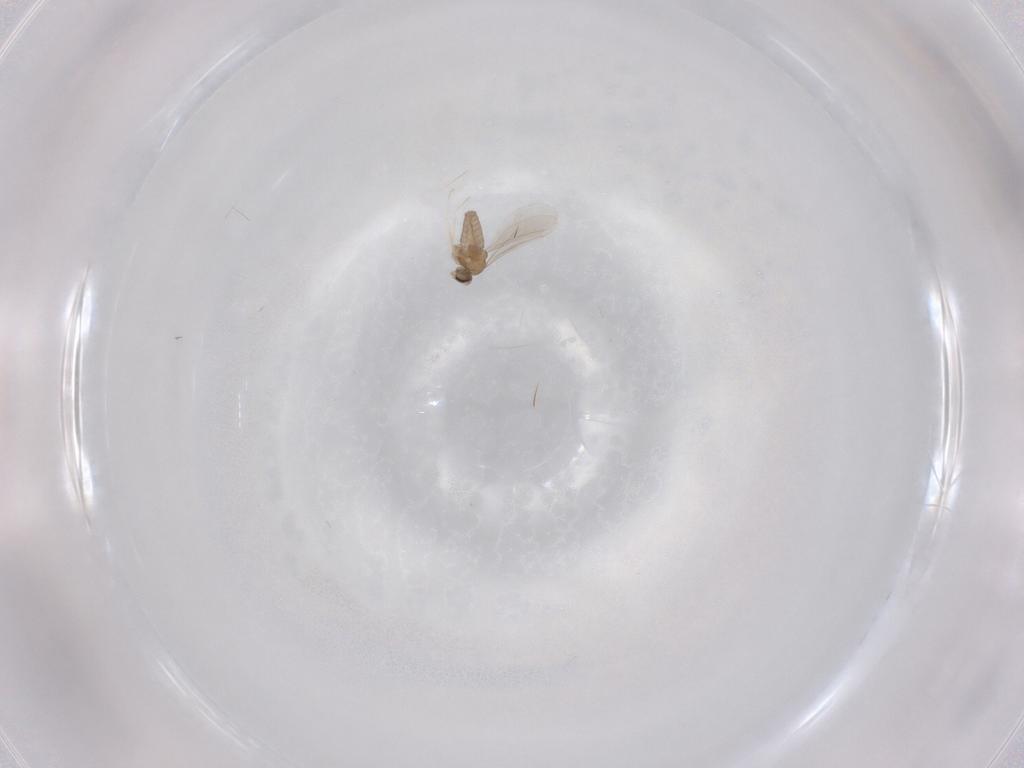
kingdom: Animalia
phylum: Arthropoda
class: Insecta
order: Diptera
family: Cecidomyiidae
